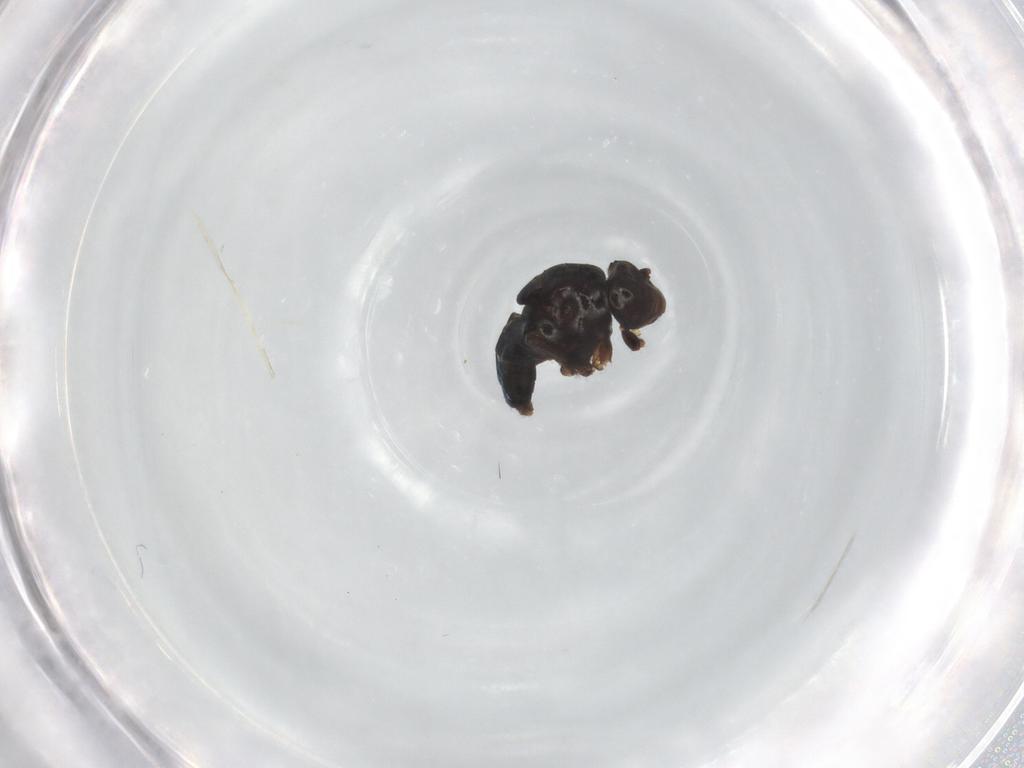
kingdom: Animalia
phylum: Arthropoda
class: Insecta
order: Diptera
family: Ephydridae
